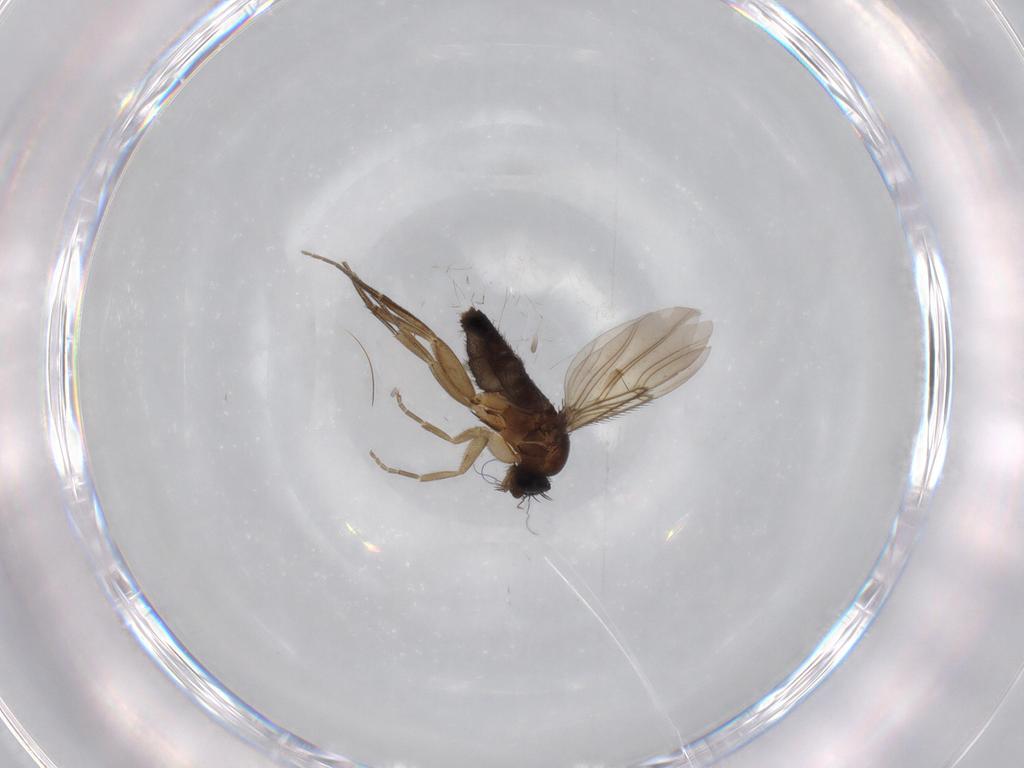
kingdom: Animalia
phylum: Arthropoda
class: Insecta
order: Diptera
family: Phoridae
